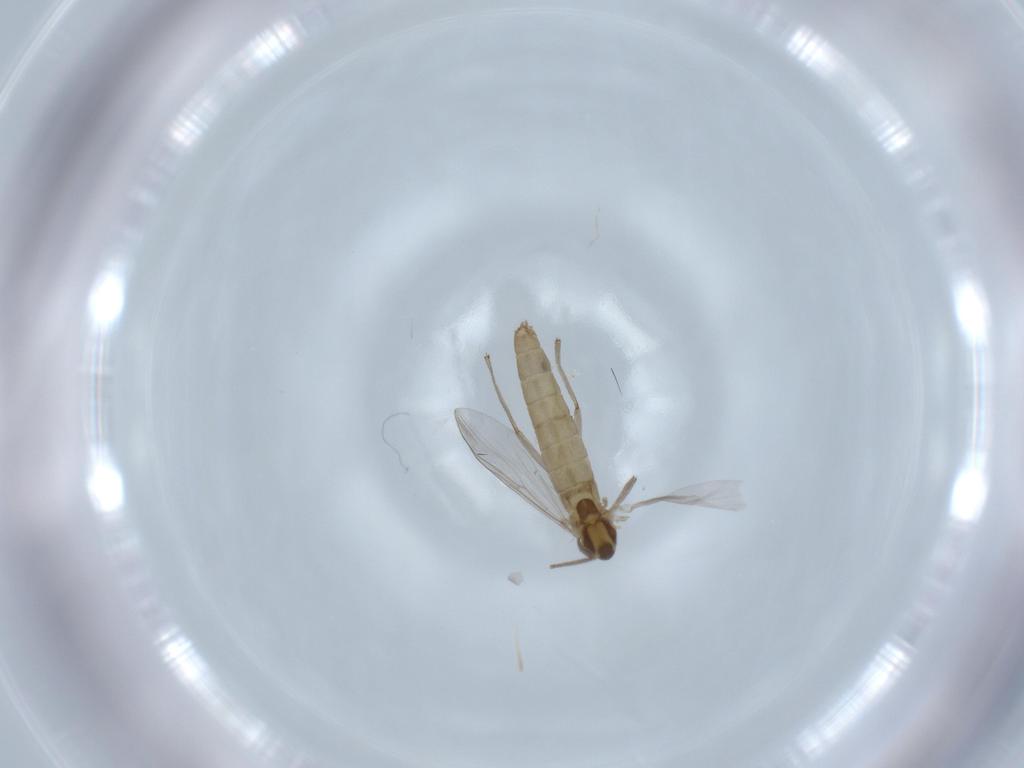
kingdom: Animalia
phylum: Arthropoda
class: Insecta
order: Diptera
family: Chironomidae
